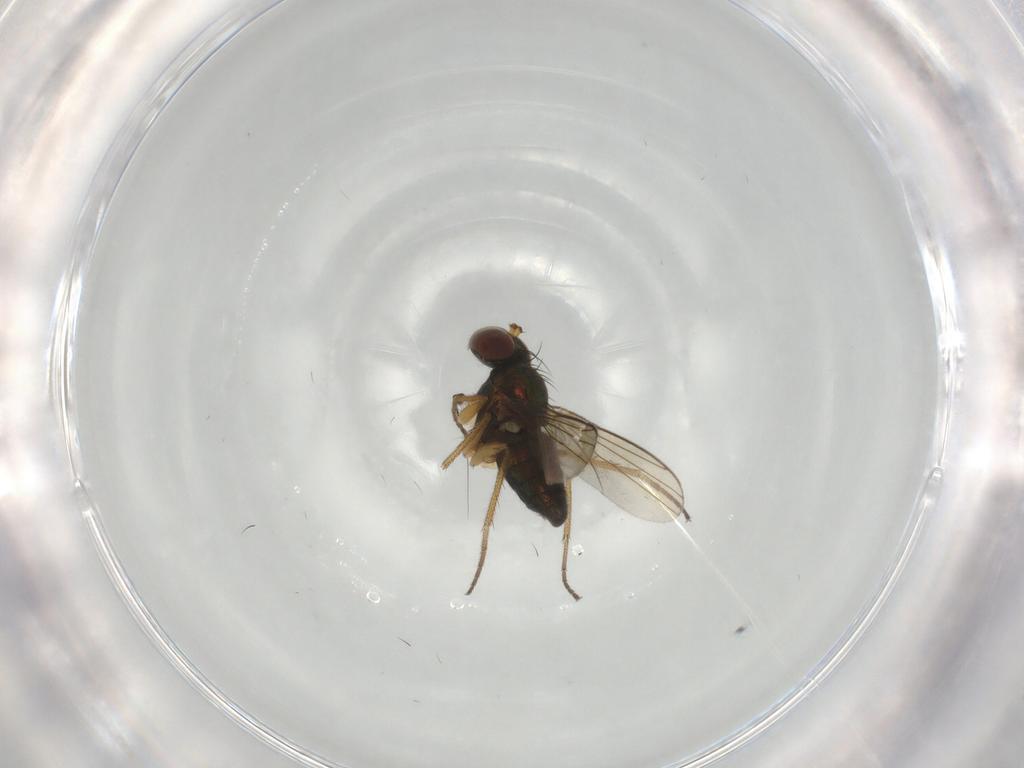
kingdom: Animalia
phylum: Arthropoda
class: Insecta
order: Diptera
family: Dolichopodidae
